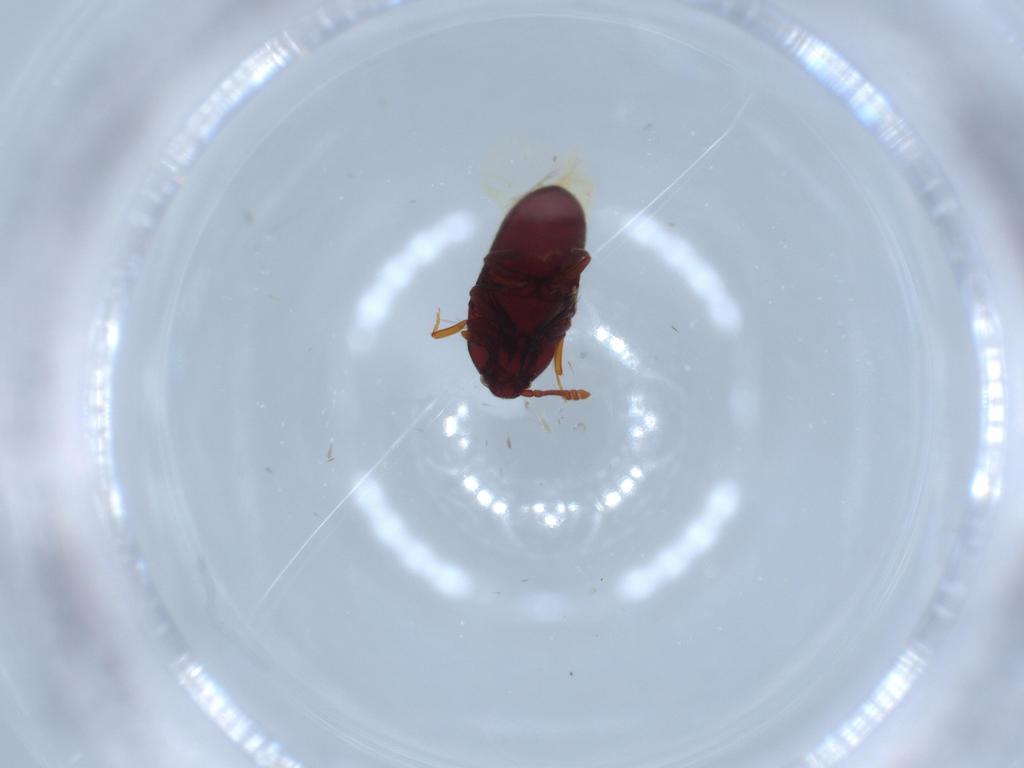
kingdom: Animalia
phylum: Arthropoda
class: Insecta
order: Coleoptera
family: Throscidae
